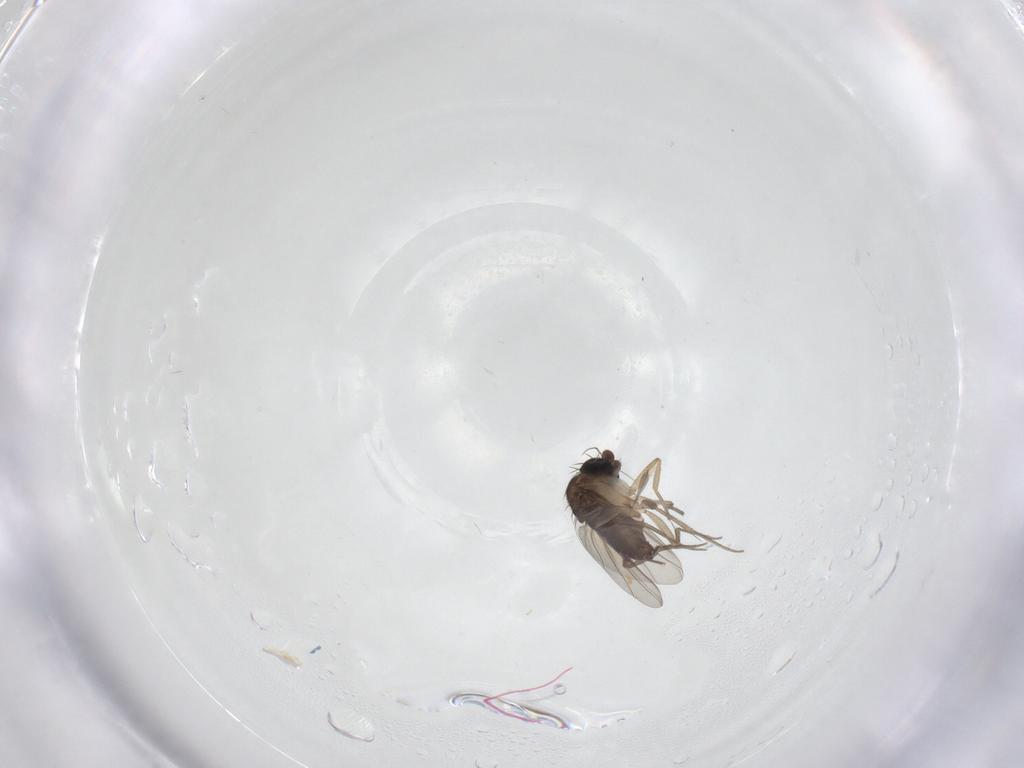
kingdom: Animalia
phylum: Arthropoda
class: Insecta
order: Diptera
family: Phoridae
